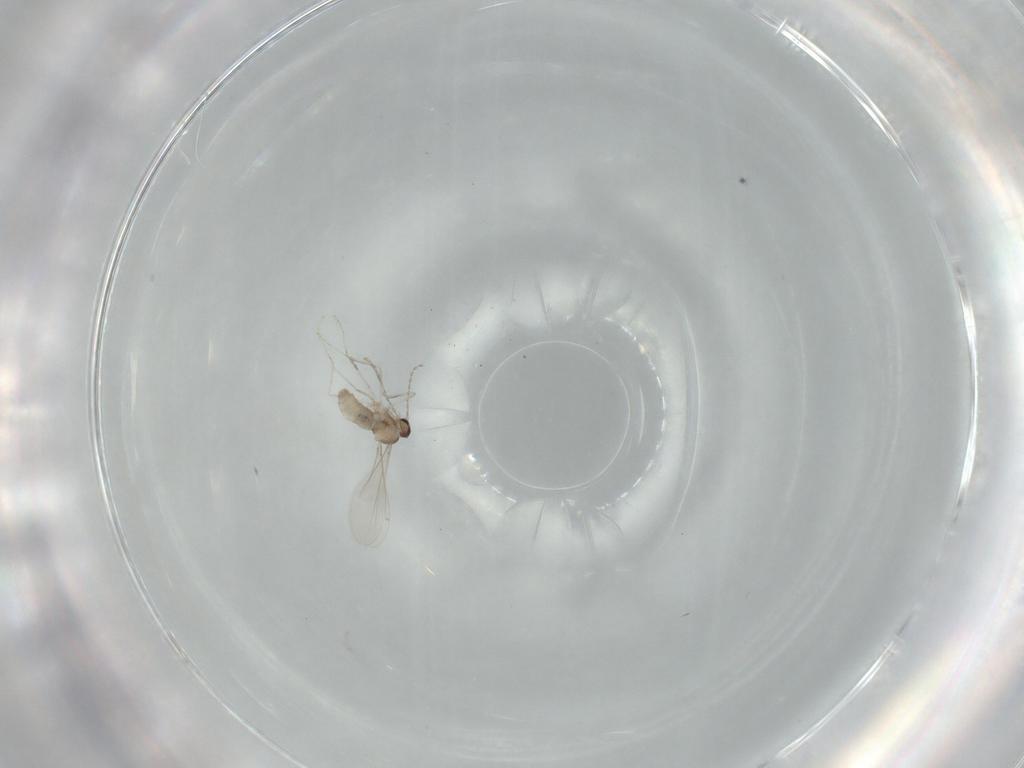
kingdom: Animalia
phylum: Arthropoda
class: Insecta
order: Diptera
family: Cecidomyiidae
